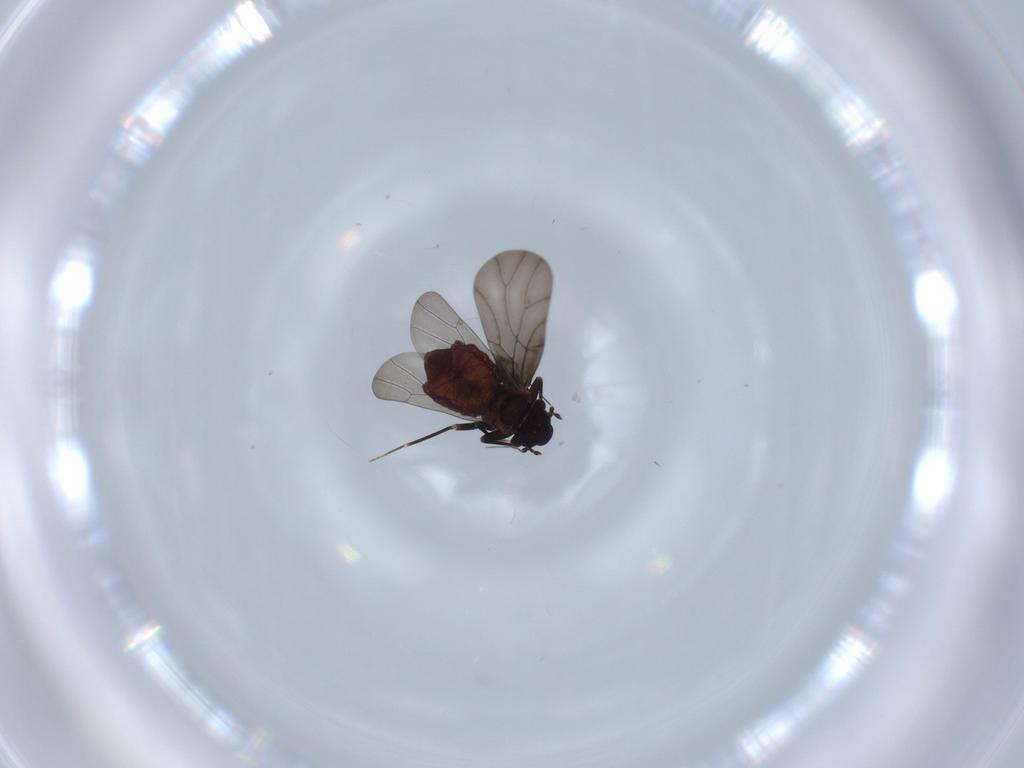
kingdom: Animalia
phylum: Arthropoda
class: Insecta
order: Psocodea
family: Lepidopsocidae
